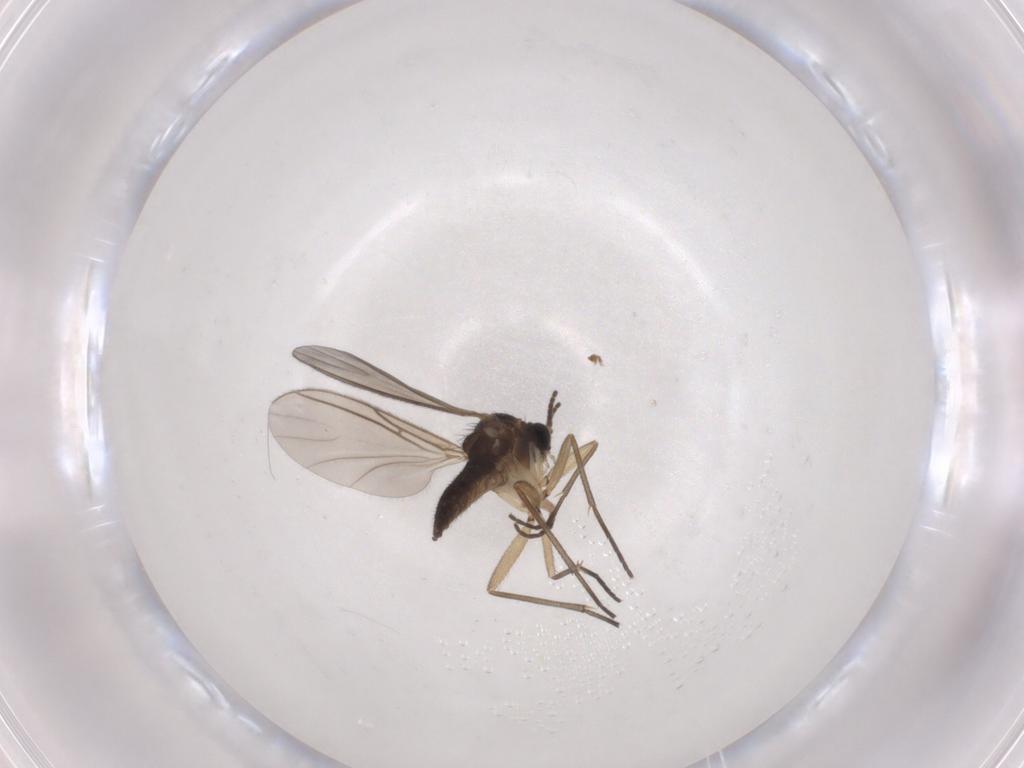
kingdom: Animalia
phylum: Arthropoda
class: Insecta
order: Diptera
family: Sciaridae
